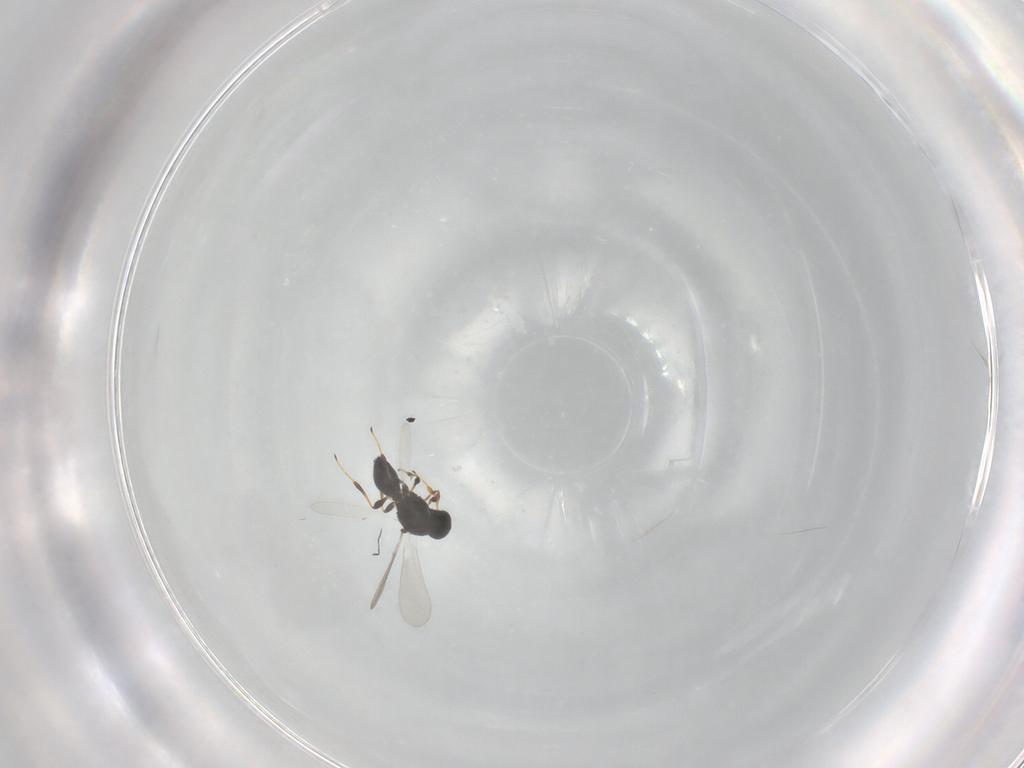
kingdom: Animalia
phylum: Arthropoda
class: Insecta
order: Hymenoptera
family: Platygastridae
